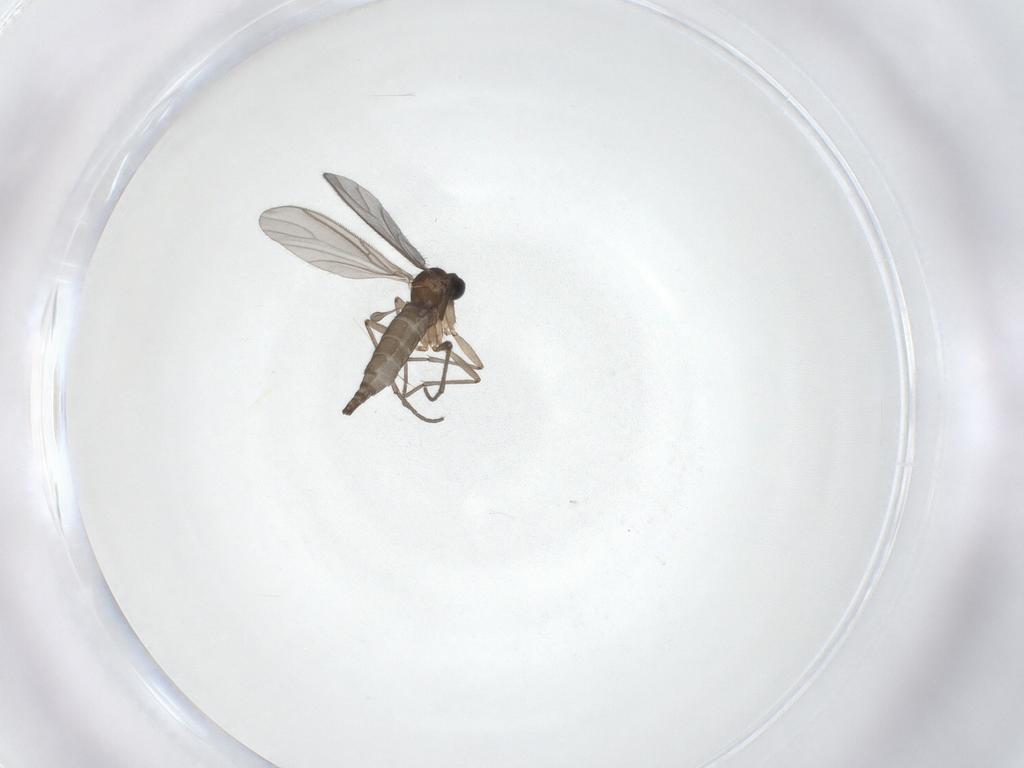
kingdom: Animalia
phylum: Arthropoda
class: Insecta
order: Diptera
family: Sciaridae
